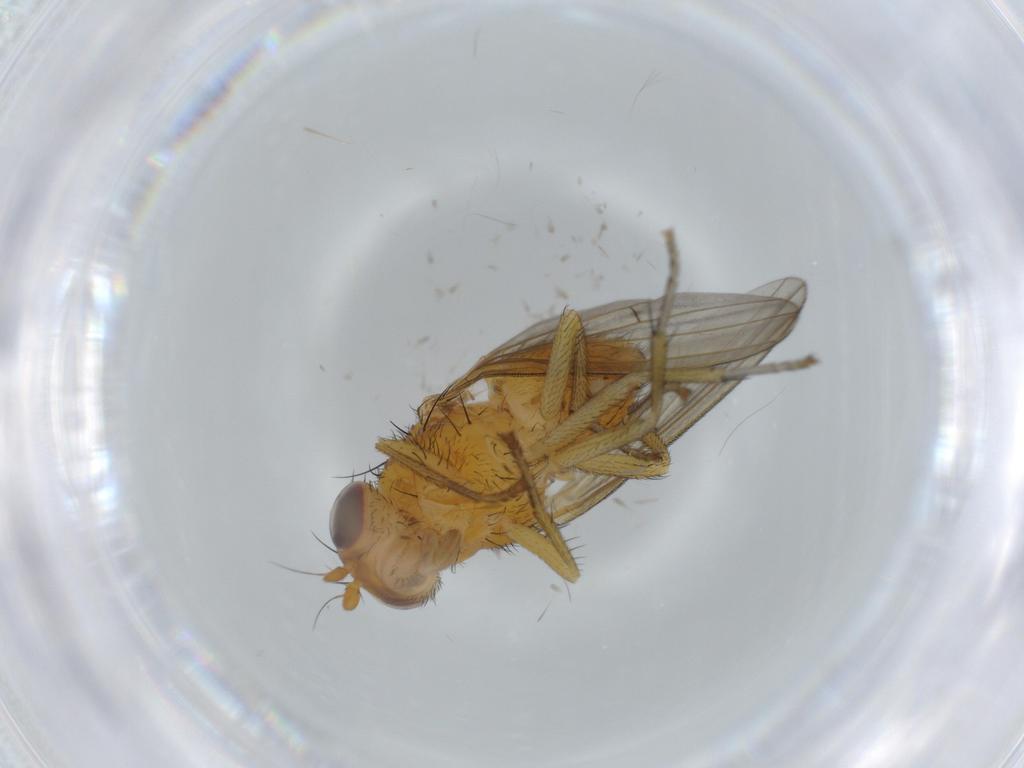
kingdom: Animalia
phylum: Arthropoda
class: Insecta
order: Diptera
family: Lauxaniidae
